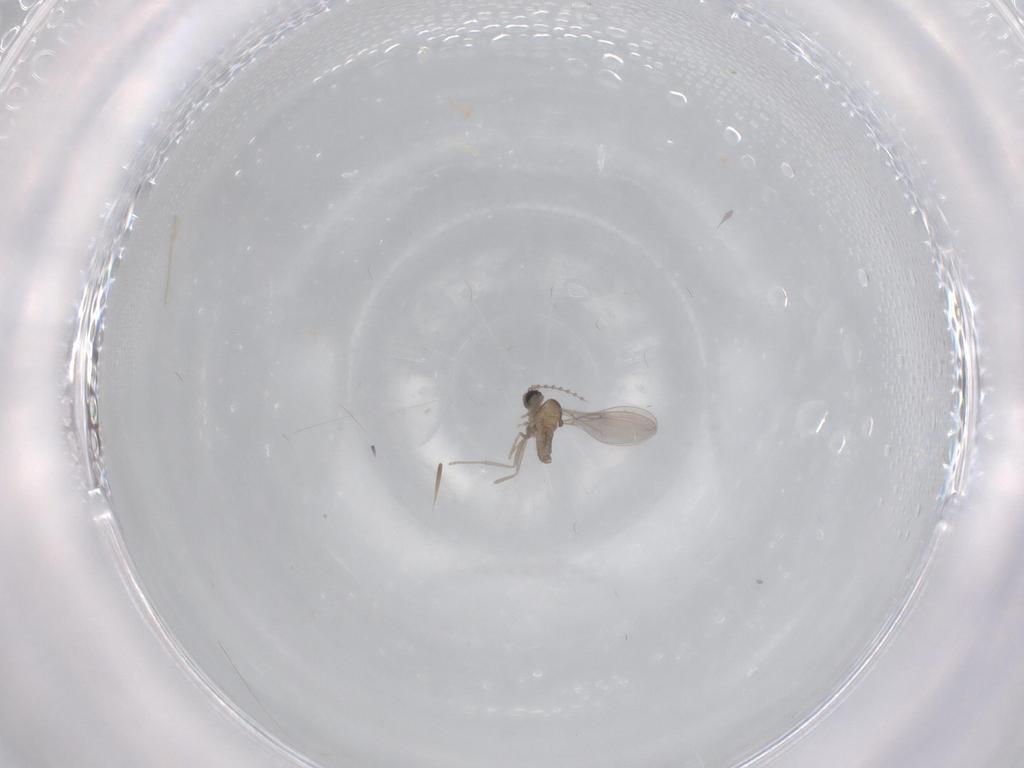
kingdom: Animalia
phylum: Arthropoda
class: Insecta
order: Diptera
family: Cecidomyiidae
